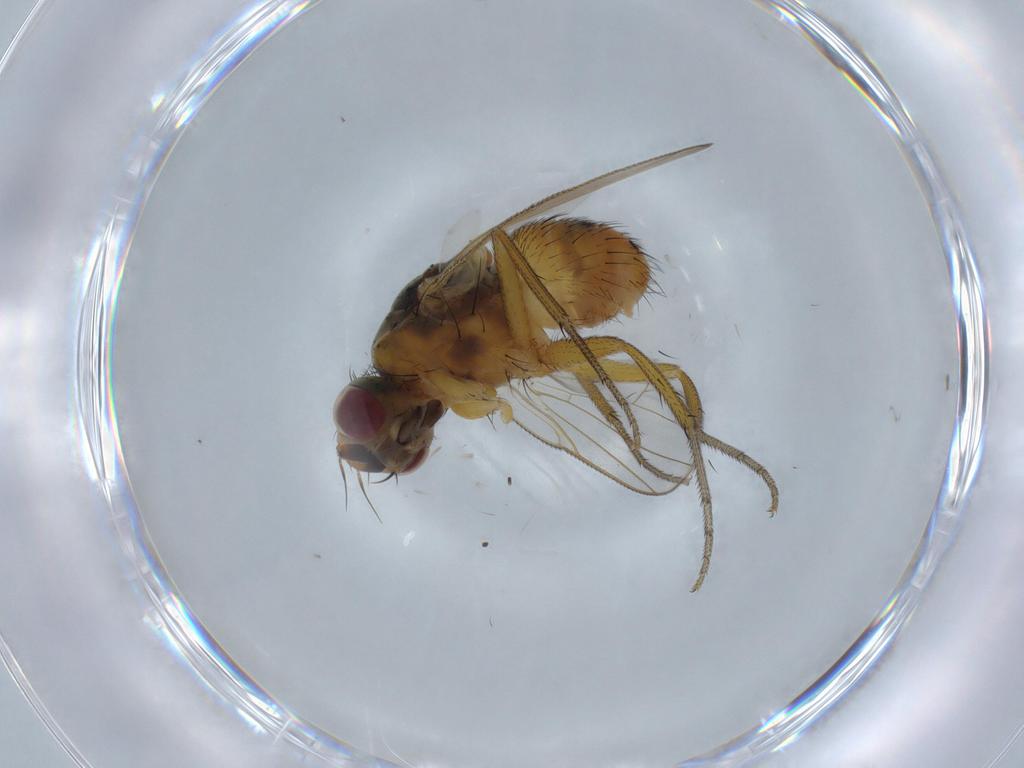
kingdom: Animalia
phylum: Arthropoda
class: Insecta
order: Diptera
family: Muscidae
